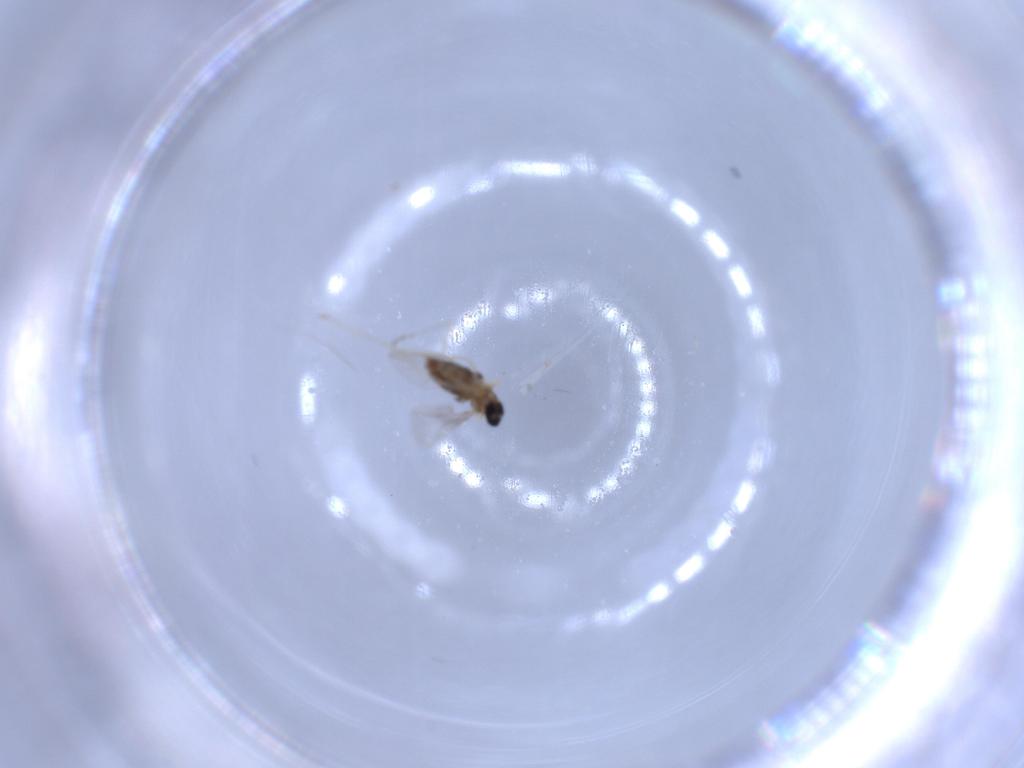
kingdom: Animalia
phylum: Arthropoda
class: Insecta
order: Diptera
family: Cecidomyiidae
